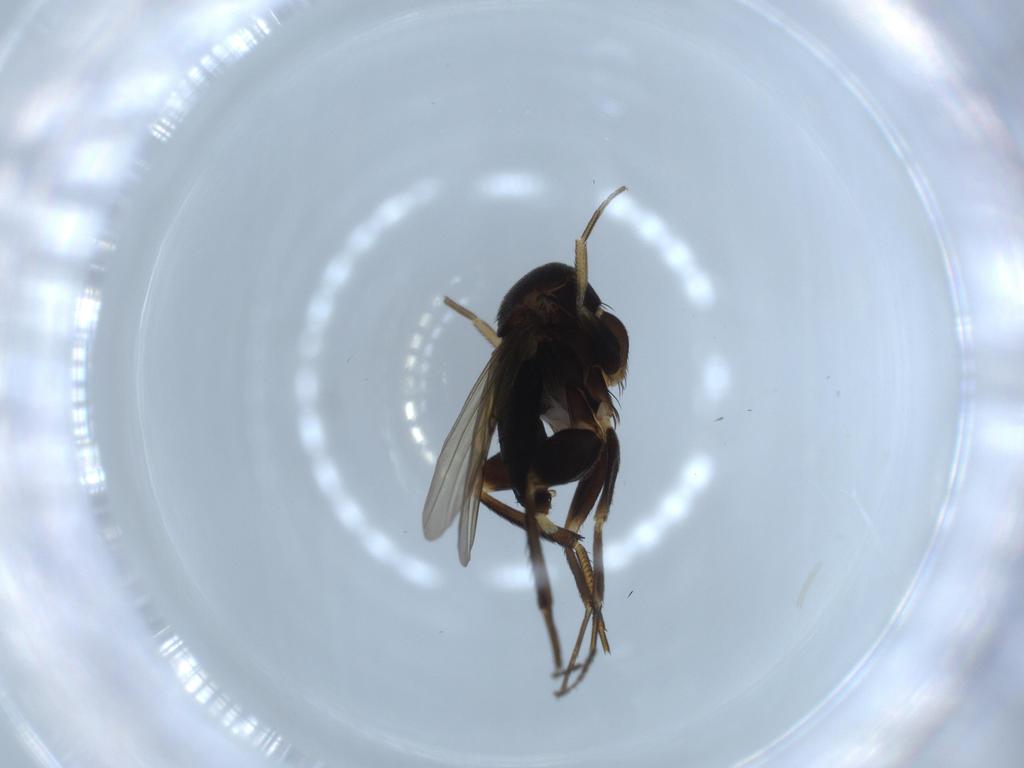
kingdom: Animalia
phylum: Arthropoda
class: Insecta
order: Diptera
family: Phoridae
